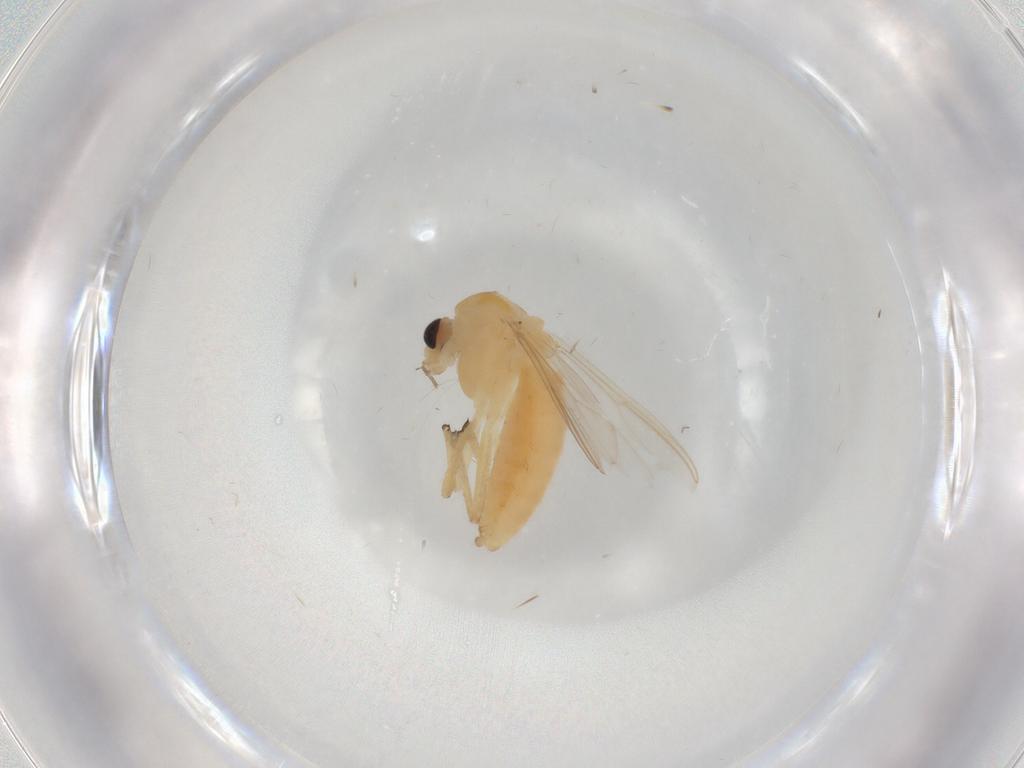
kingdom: Animalia
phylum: Arthropoda
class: Insecta
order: Diptera
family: Chironomidae
